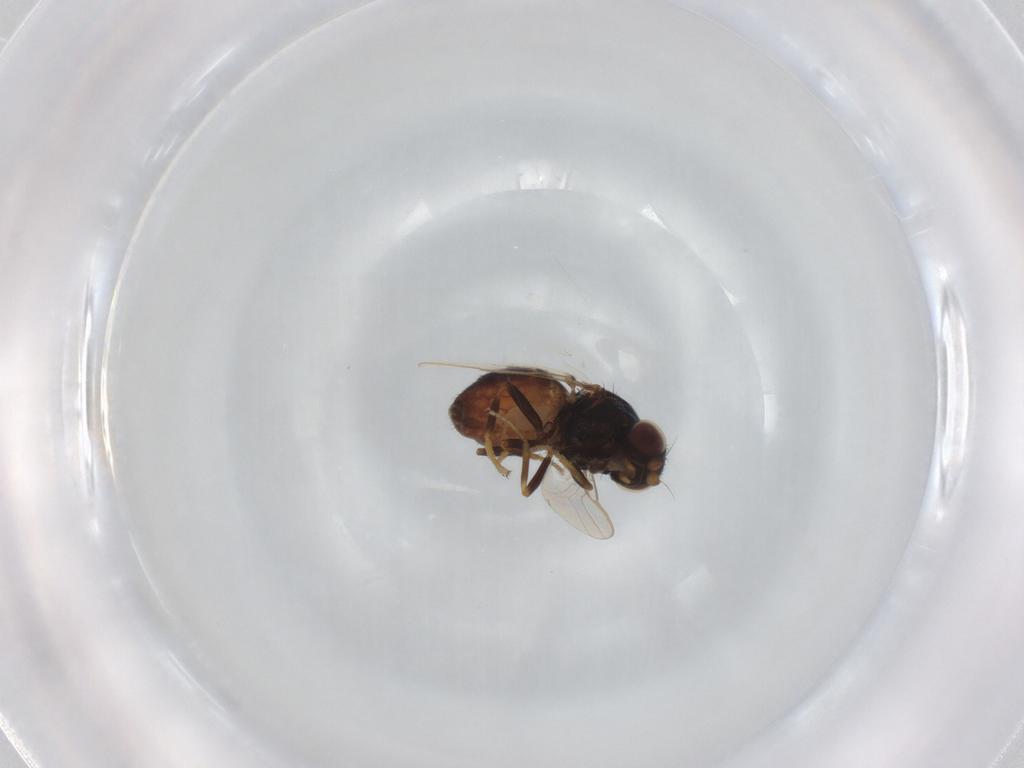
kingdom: Animalia
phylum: Arthropoda
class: Insecta
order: Diptera
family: Chloropidae
